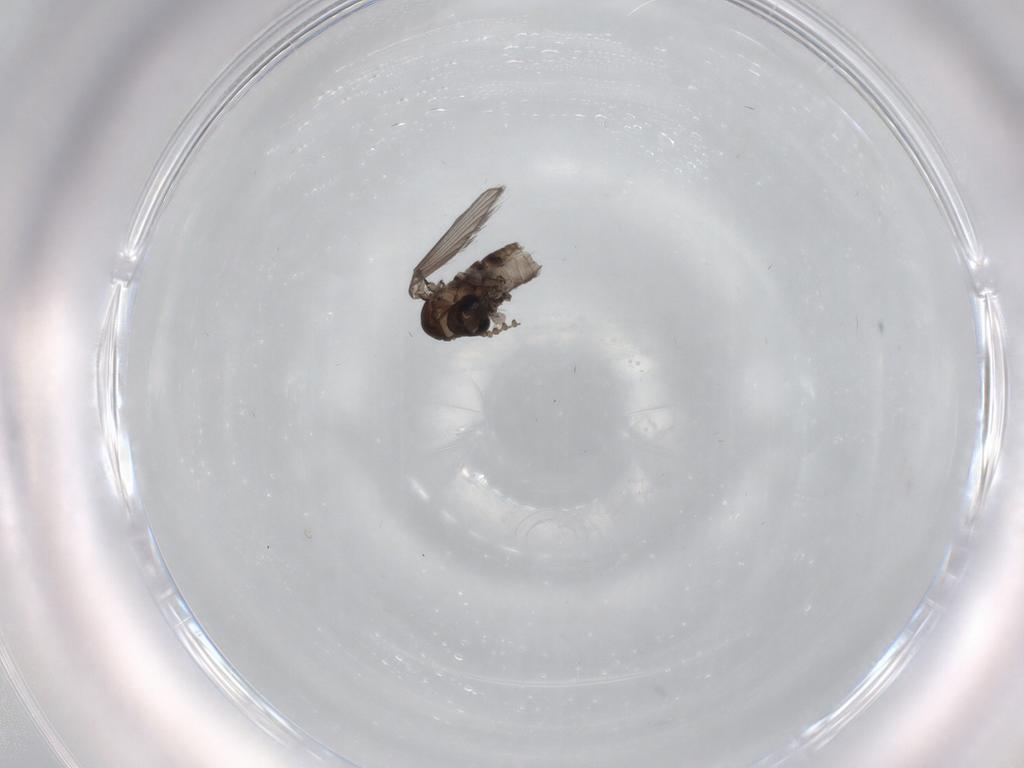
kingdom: Animalia
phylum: Arthropoda
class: Insecta
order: Diptera
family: Psychodidae
